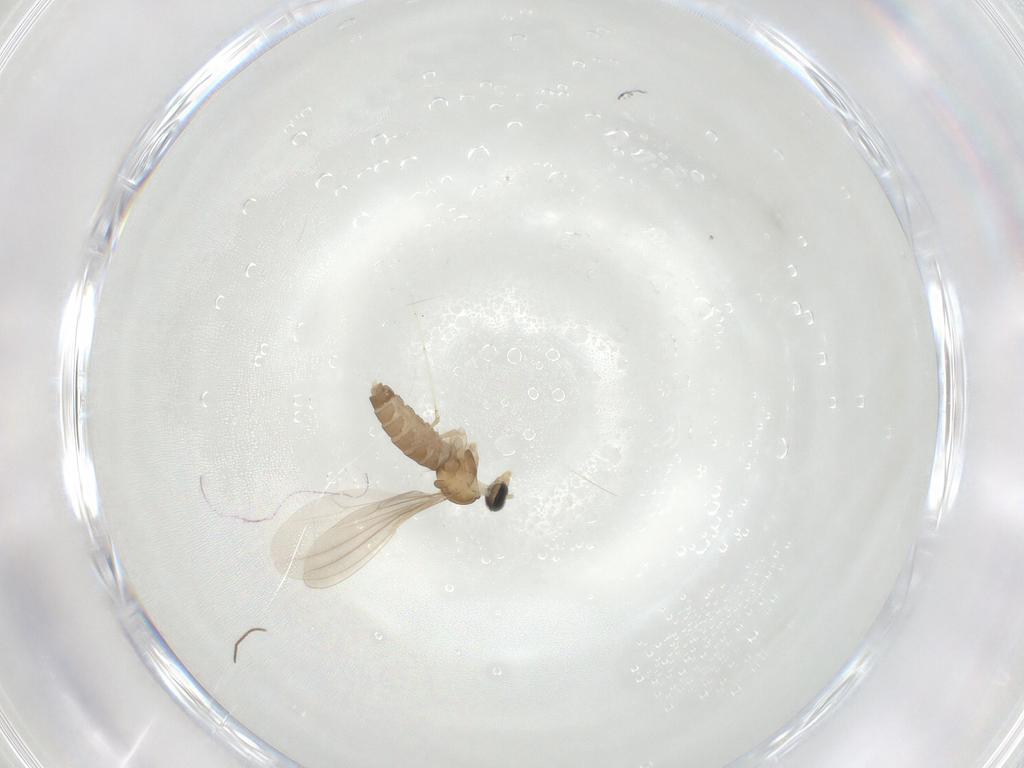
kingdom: Animalia
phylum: Arthropoda
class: Insecta
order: Diptera
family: Cecidomyiidae
